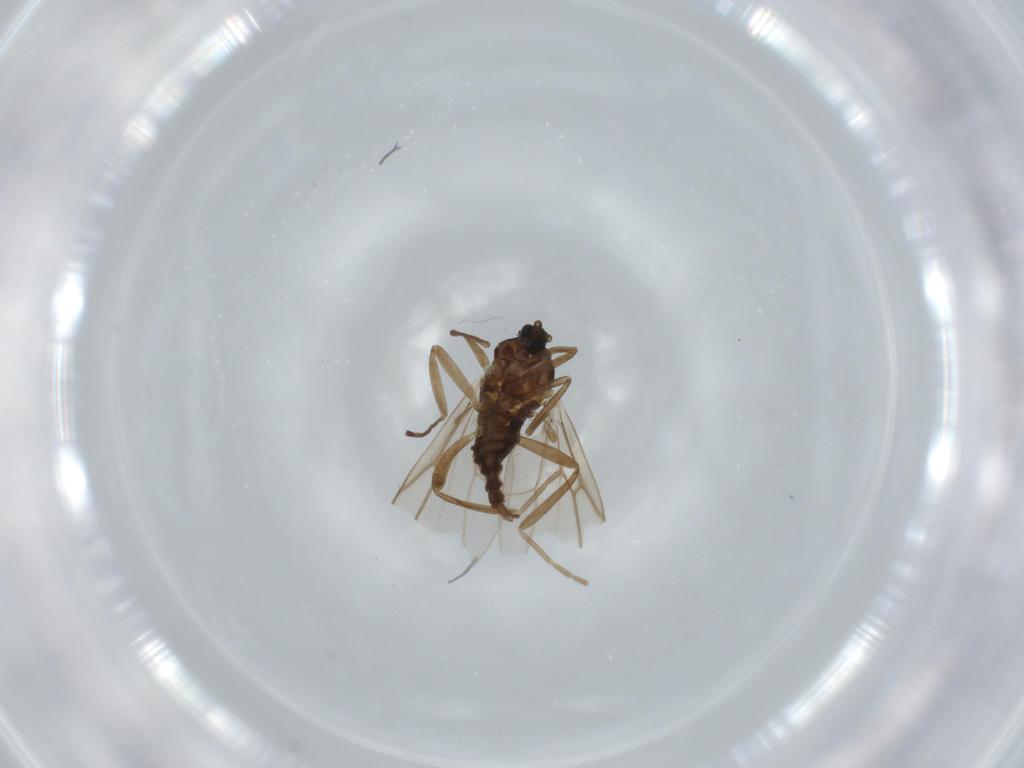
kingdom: Animalia
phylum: Arthropoda
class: Insecta
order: Diptera
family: Cecidomyiidae
